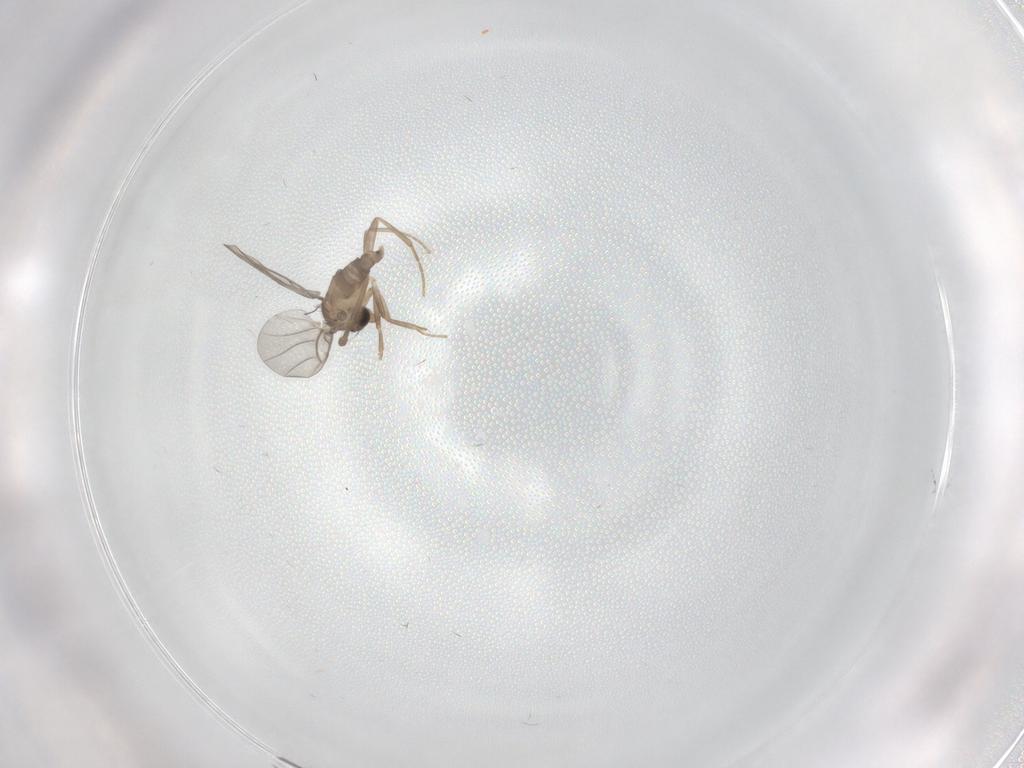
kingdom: Animalia
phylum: Arthropoda
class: Insecta
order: Diptera
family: Mycetophilidae
